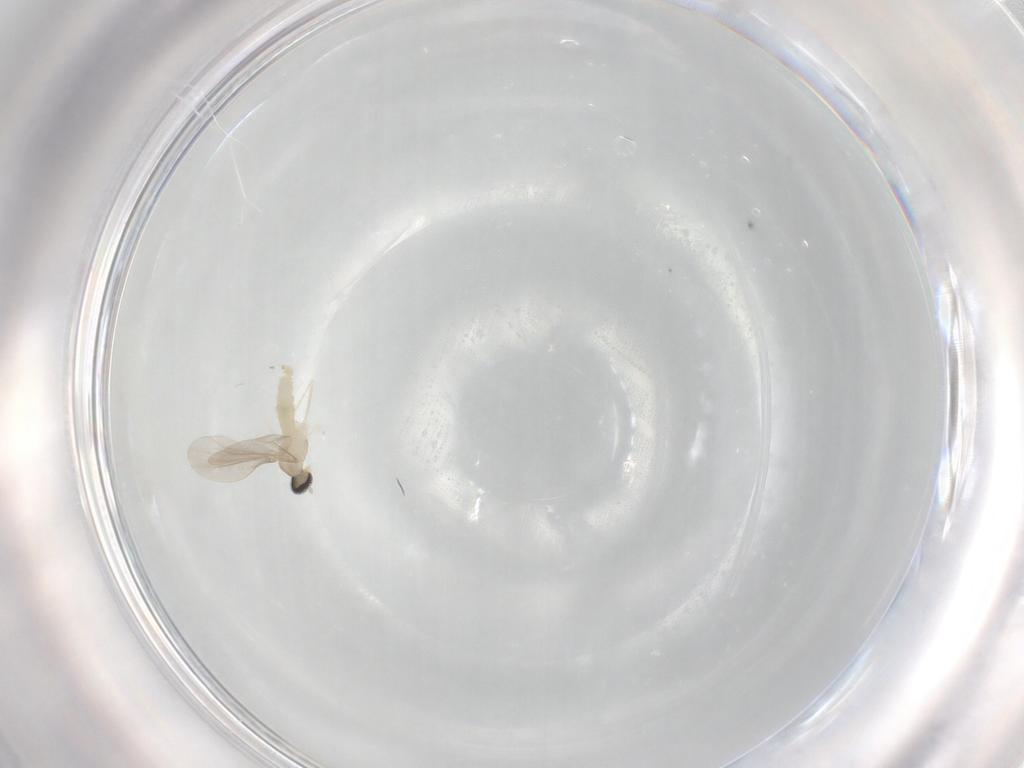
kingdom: Animalia
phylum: Arthropoda
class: Insecta
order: Diptera
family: Cecidomyiidae
